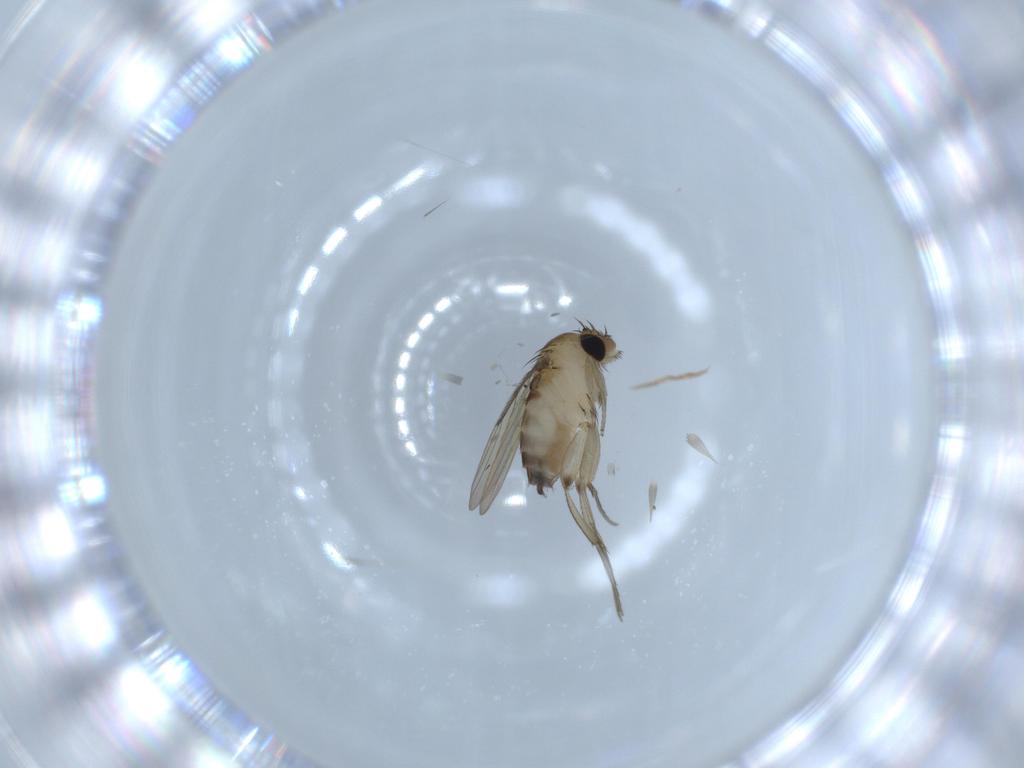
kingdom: Animalia
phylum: Arthropoda
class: Insecta
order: Diptera
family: Phoridae
